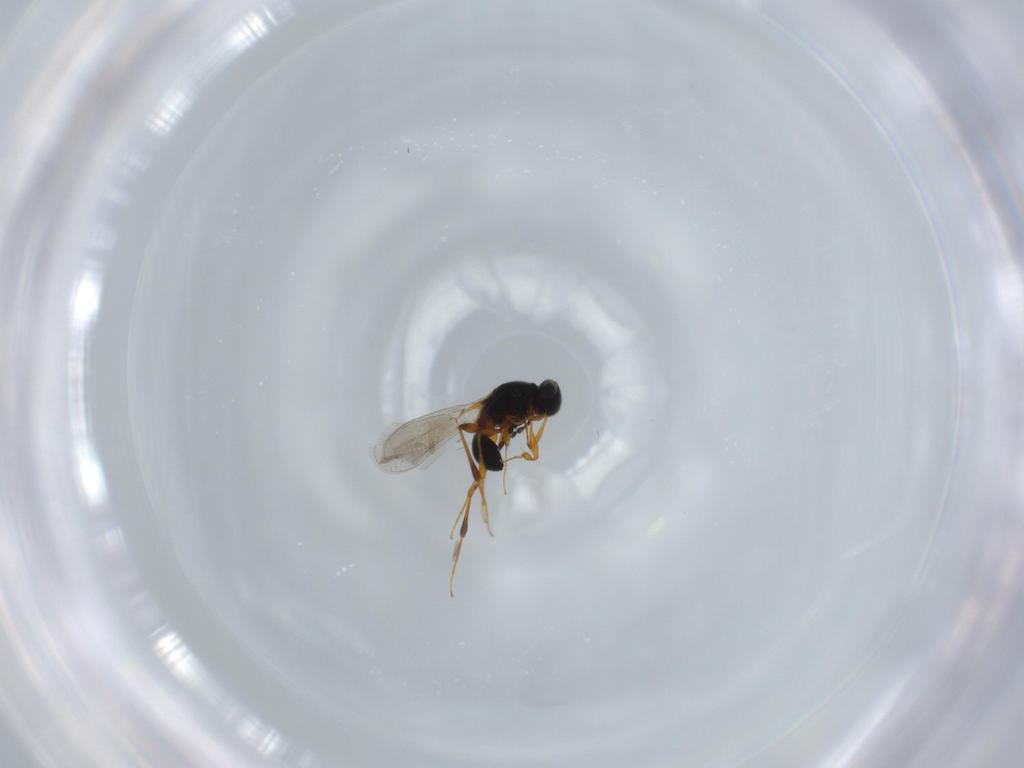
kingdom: Animalia
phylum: Arthropoda
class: Insecta
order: Hymenoptera
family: Platygastridae
